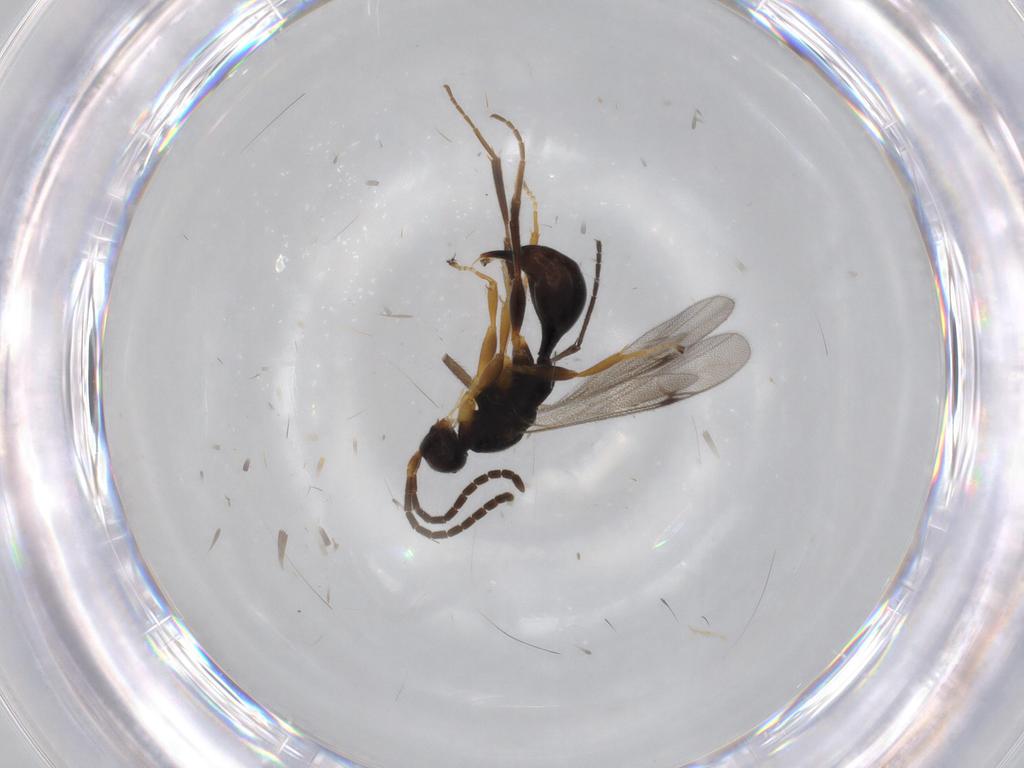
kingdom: Animalia
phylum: Arthropoda
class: Insecta
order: Hymenoptera
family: Proctotrupidae
